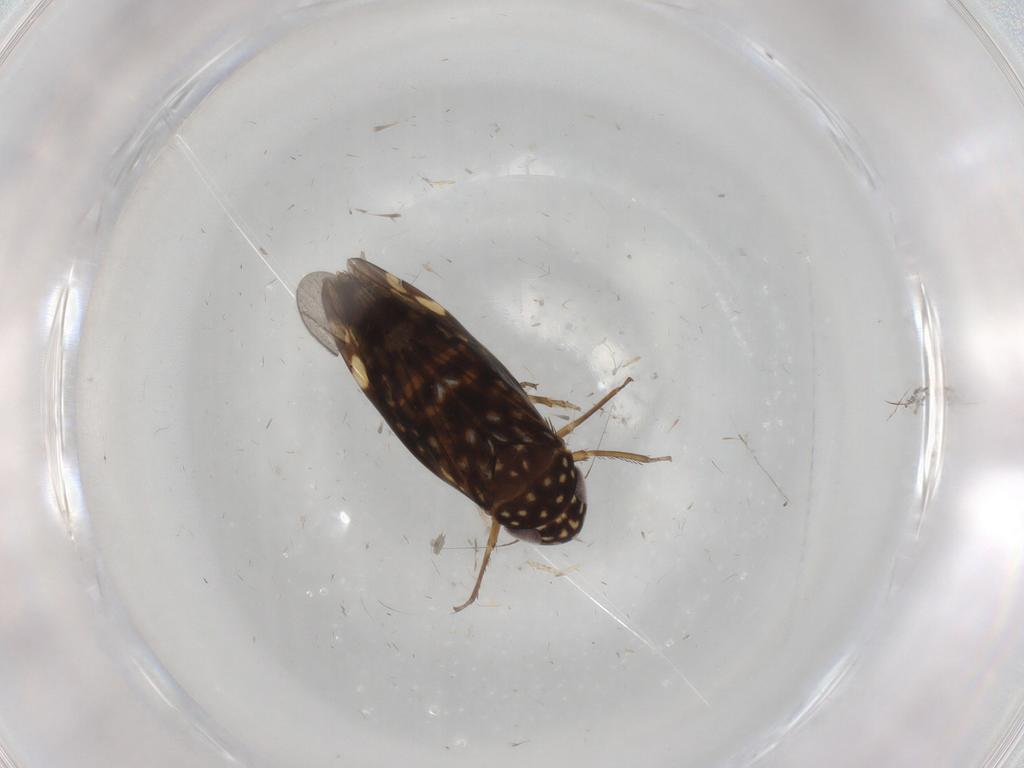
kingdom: Animalia
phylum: Arthropoda
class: Insecta
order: Hemiptera
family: Cicadellidae
